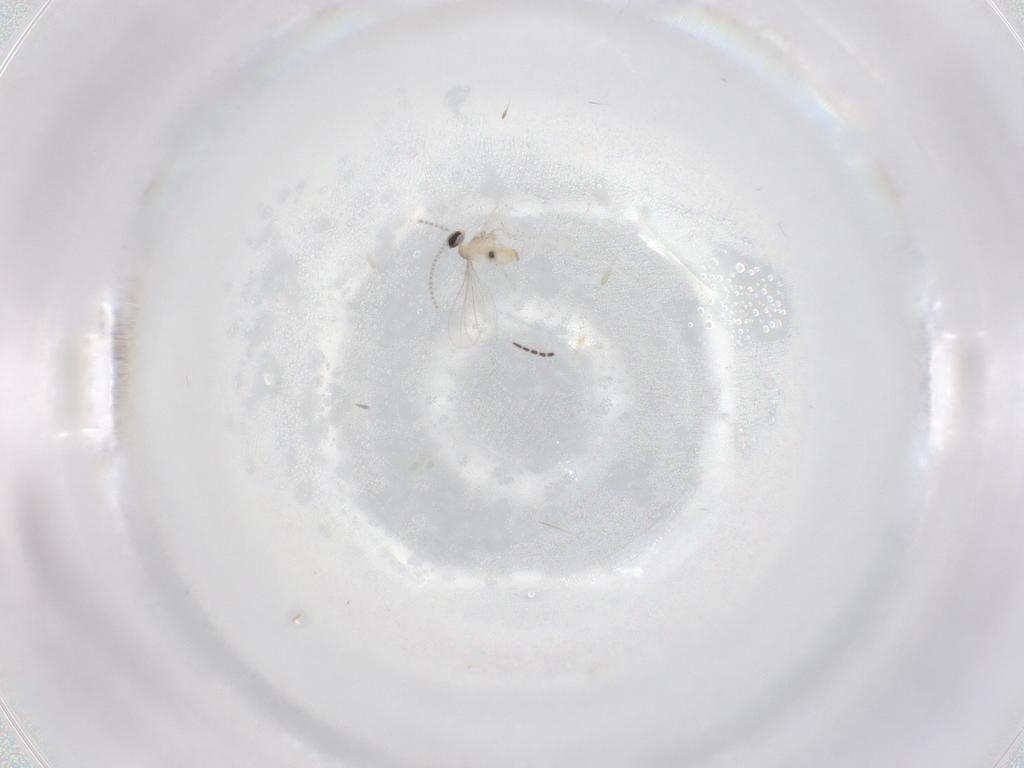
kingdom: Animalia
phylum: Arthropoda
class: Insecta
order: Diptera
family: Cecidomyiidae
